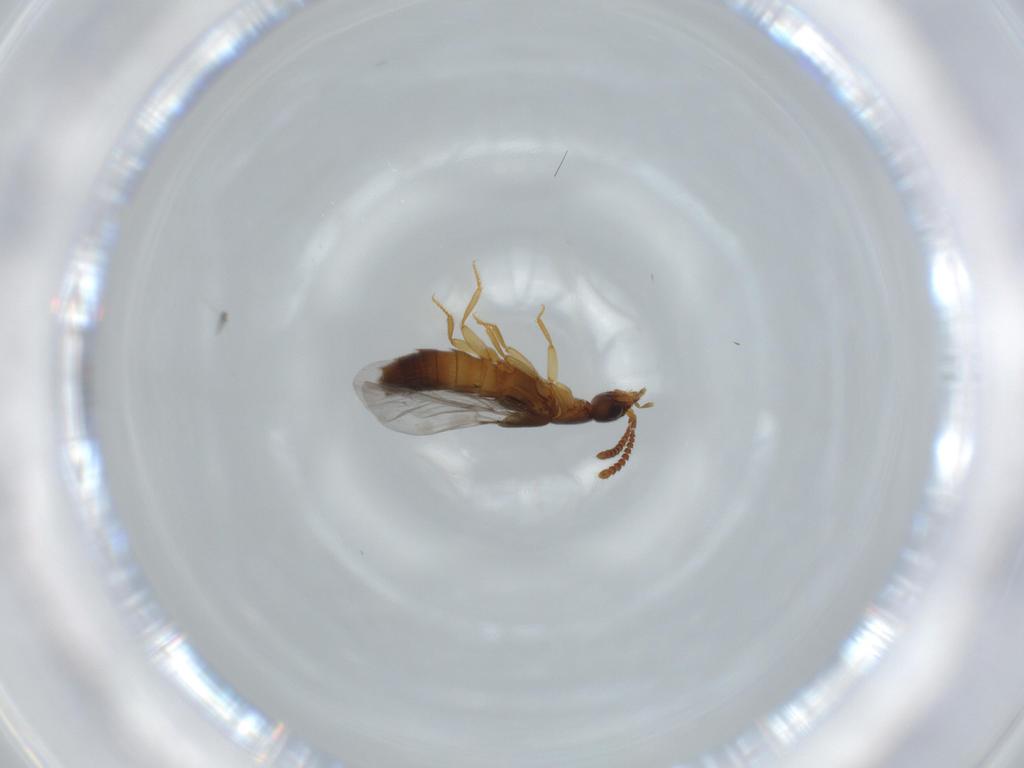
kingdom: Animalia
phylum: Arthropoda
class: Insecta
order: Coleoptera
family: Staphylinidae
